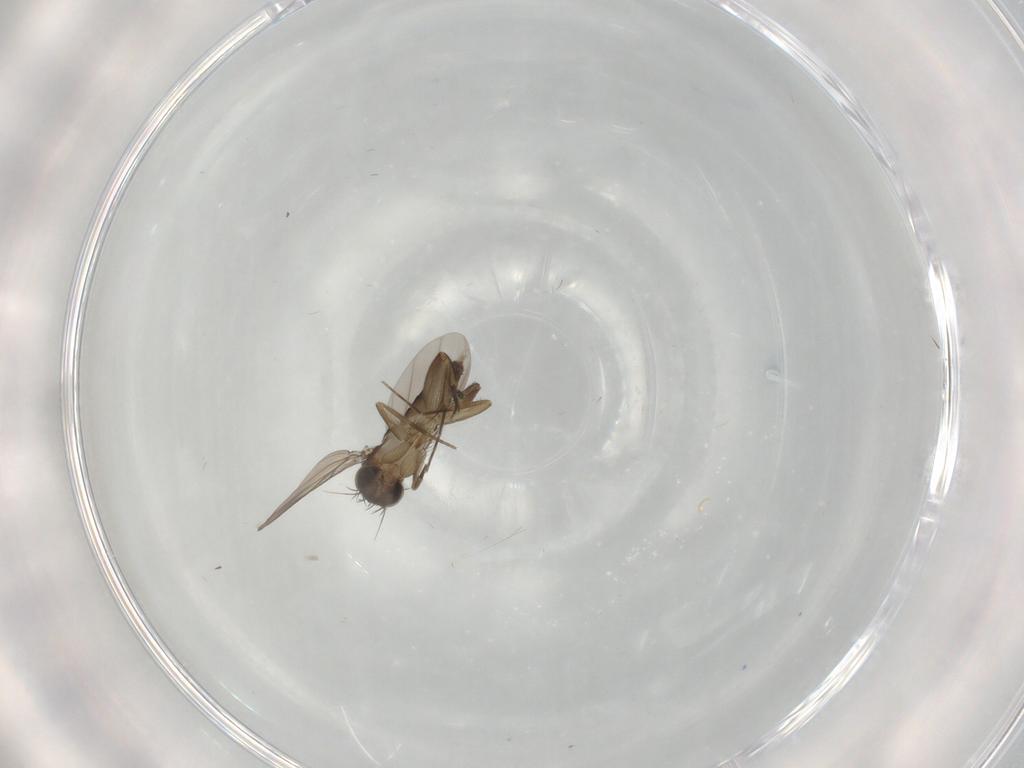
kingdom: Animalia
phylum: Arthropoda
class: Insecta
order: Diptera
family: Phoridae
